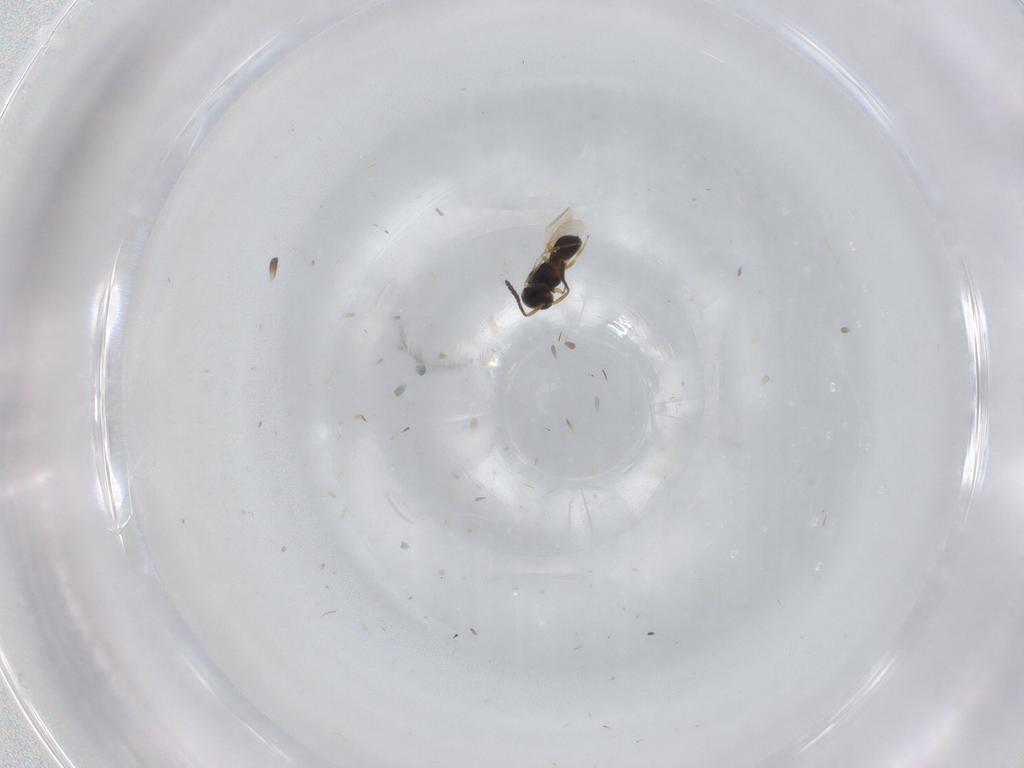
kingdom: Animalia
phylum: Arthropoda
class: Insecta
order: Hymenoptera
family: Scelionidae
